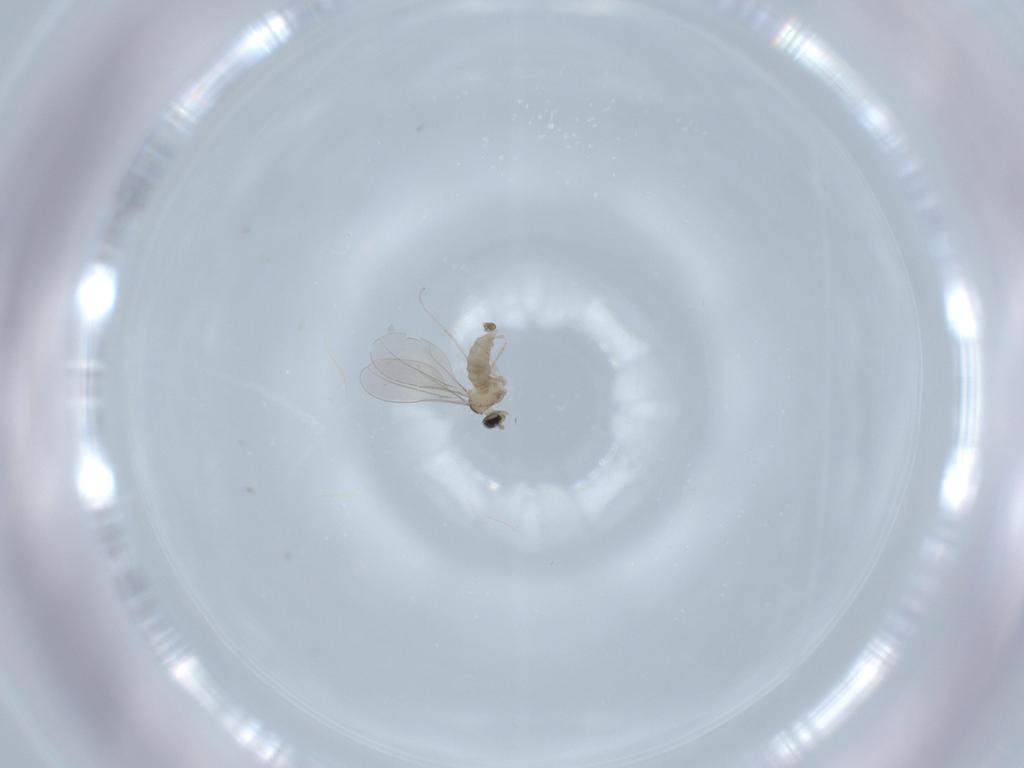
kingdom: Animalia
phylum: Arthropoda
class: Insecta
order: Diptera
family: Cecidomyiidae
